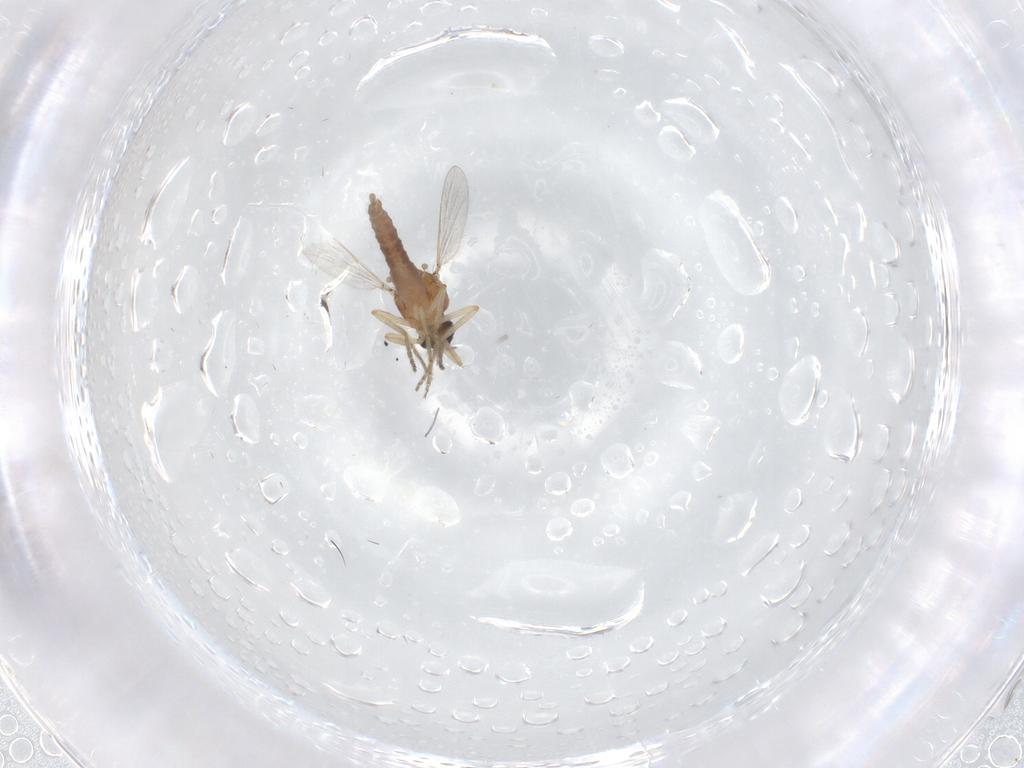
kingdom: Animalia
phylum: Arthropoda
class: Insecta
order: Diptera
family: Ceratopogonidae
